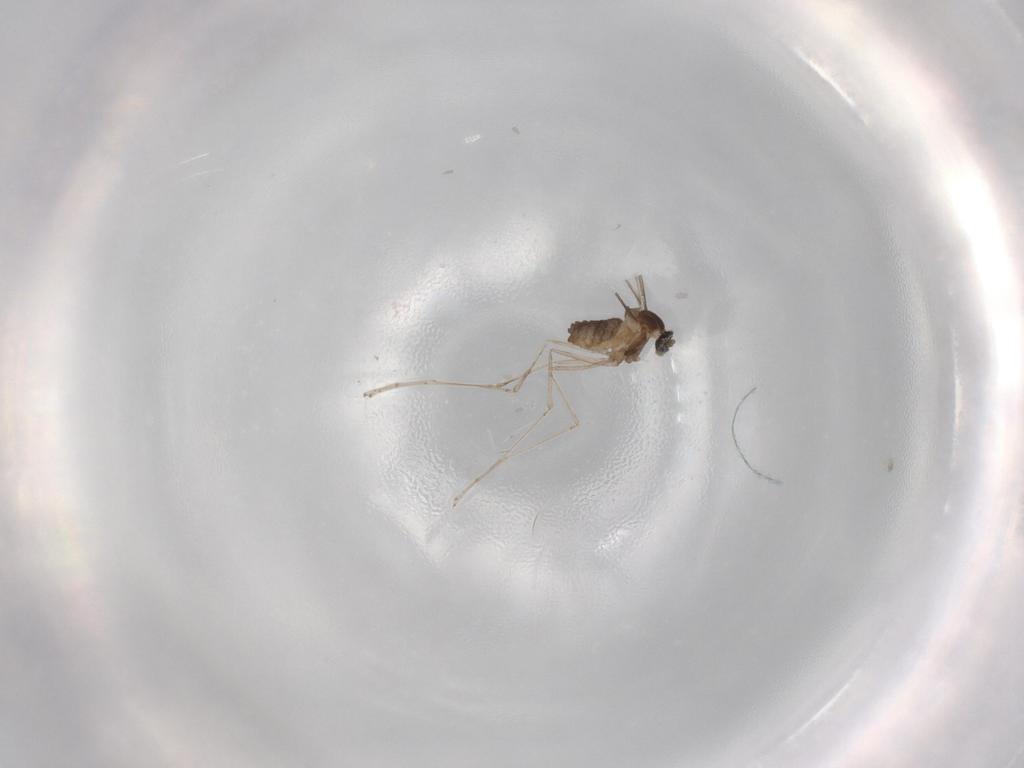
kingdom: Animalia
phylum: Arthropoda
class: Insecta
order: Diptera
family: Cecidomyiidae
